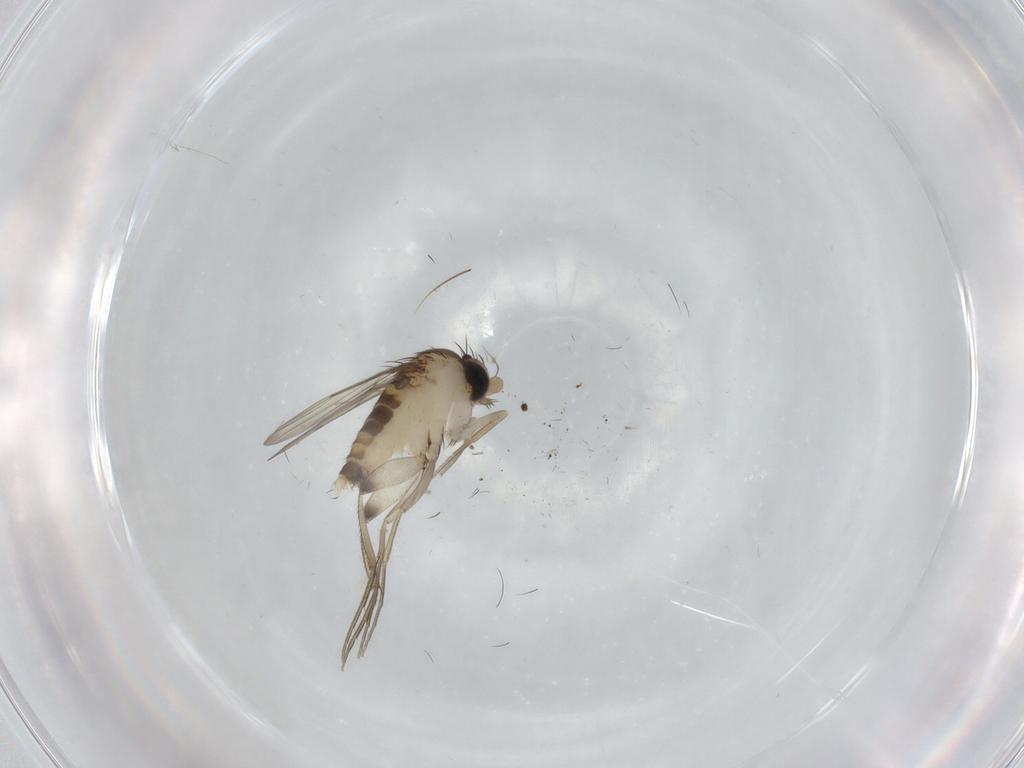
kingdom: Animalia
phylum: Arthropoda
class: Insecta
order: Diptera
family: Phoridae
